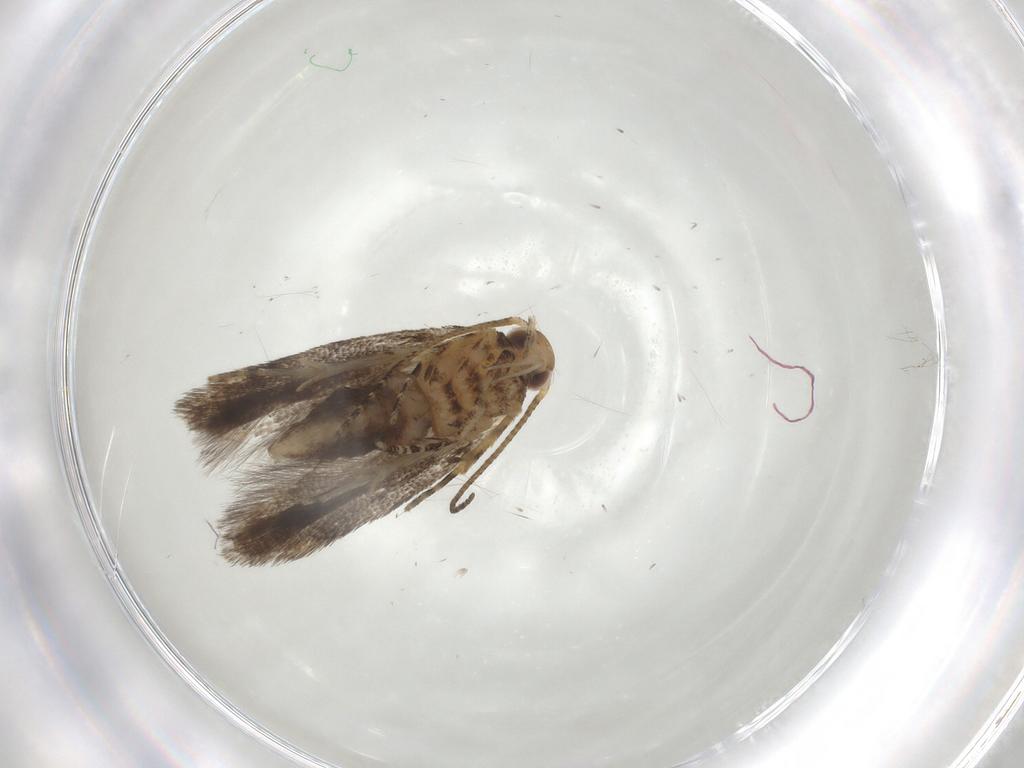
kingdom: Animalia
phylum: Arthropoda
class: Insecta
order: Lepidoptera
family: Gelechiidae
